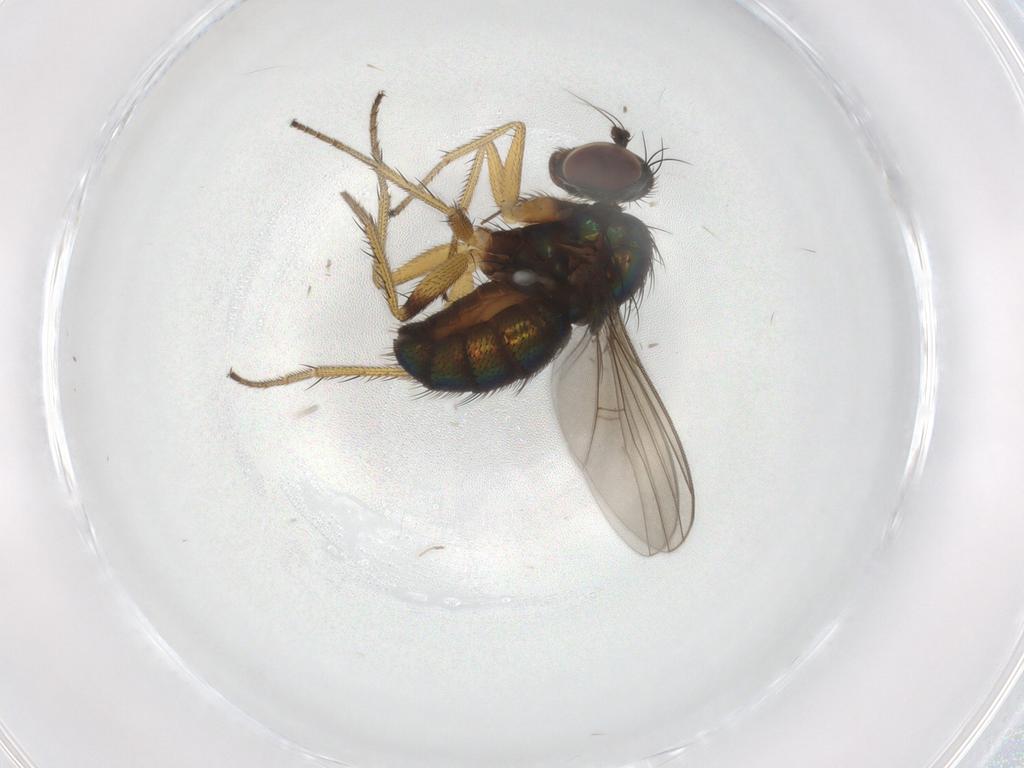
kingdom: Animalia
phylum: Arthropoda
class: Insecta
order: Diptera
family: Dolichopodidae
